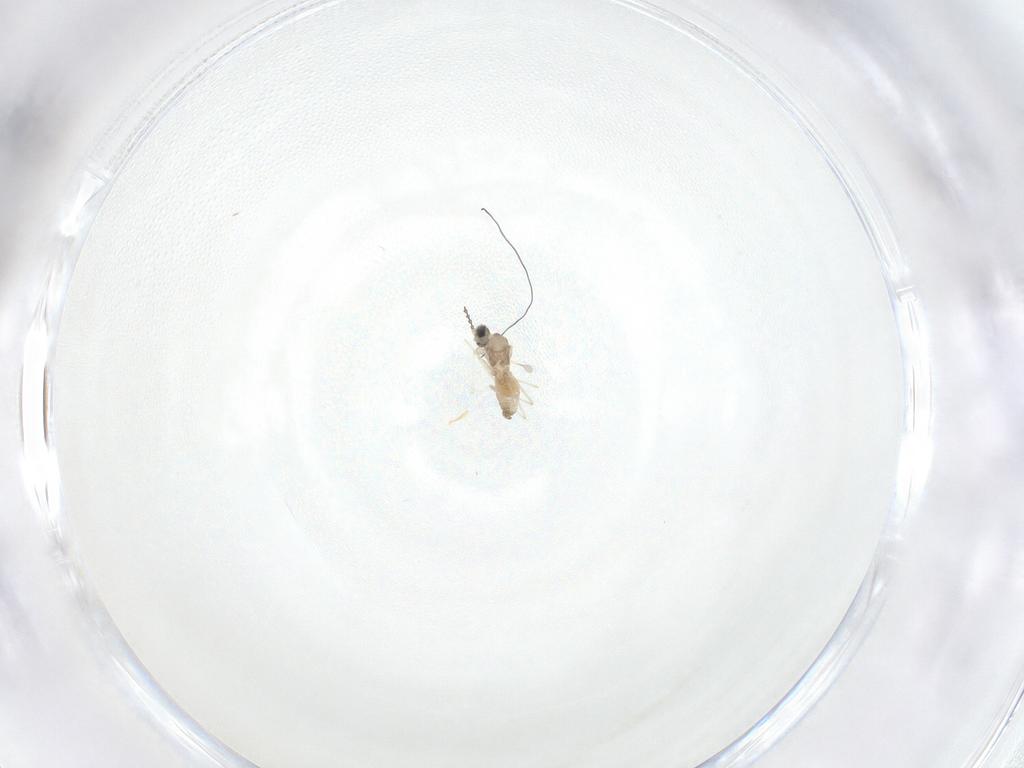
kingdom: Animalia
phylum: Arthropoda
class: Insecta
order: Diptera
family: Cecidomyiidae
